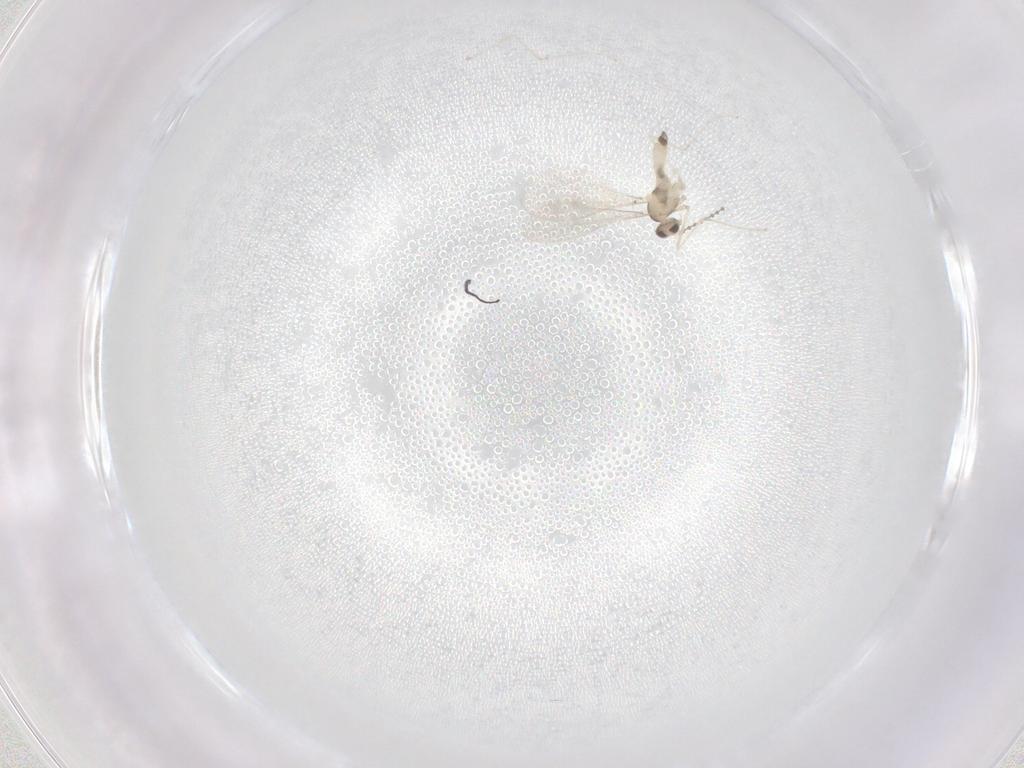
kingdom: Animalia
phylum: Arthropoda
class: Insecta
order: Diptera
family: Cecidomyiidae
